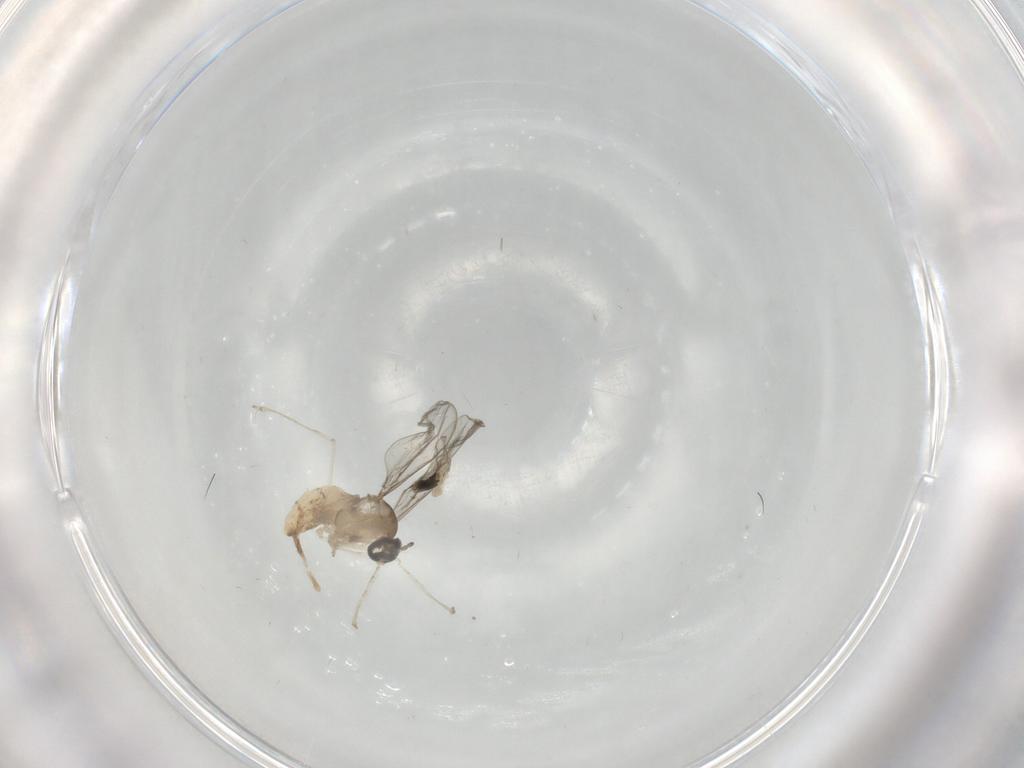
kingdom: Animalia
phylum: Arthropoda
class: Insecta
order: Diptera
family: Psychodidae
